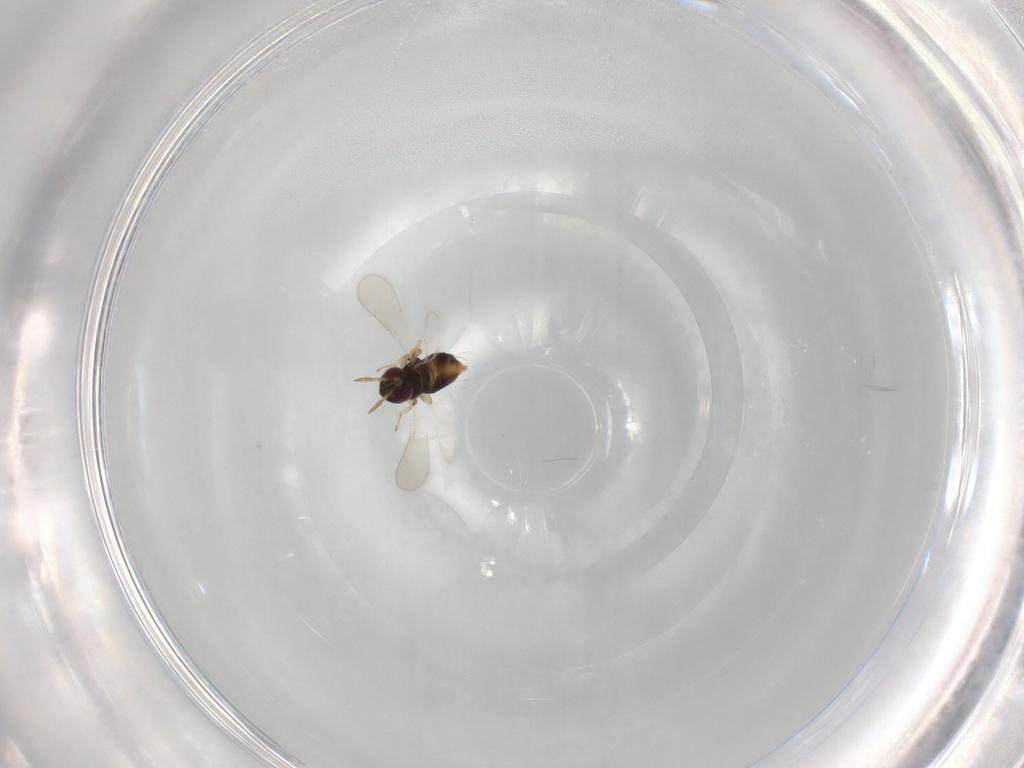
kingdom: Animalia
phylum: Arthropoda
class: Insecta
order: Hymenoptera
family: Aphelinidae
